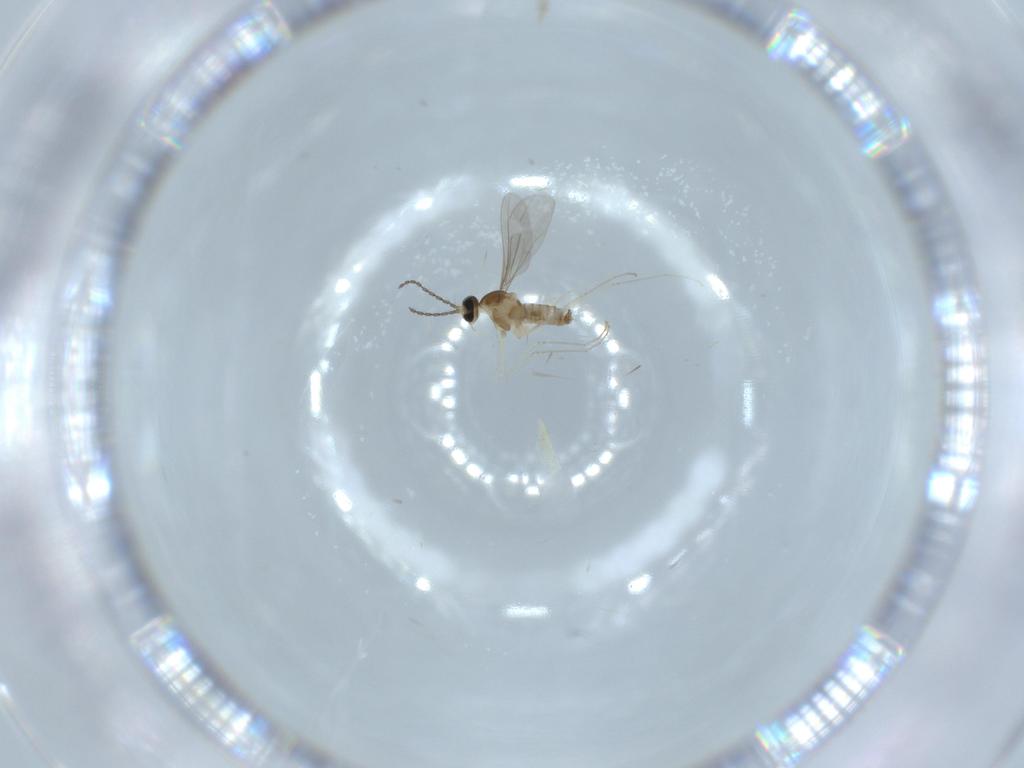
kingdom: Animalia
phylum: Arthropoda
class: Insecta
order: Diptera
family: Cecidomyiidae
